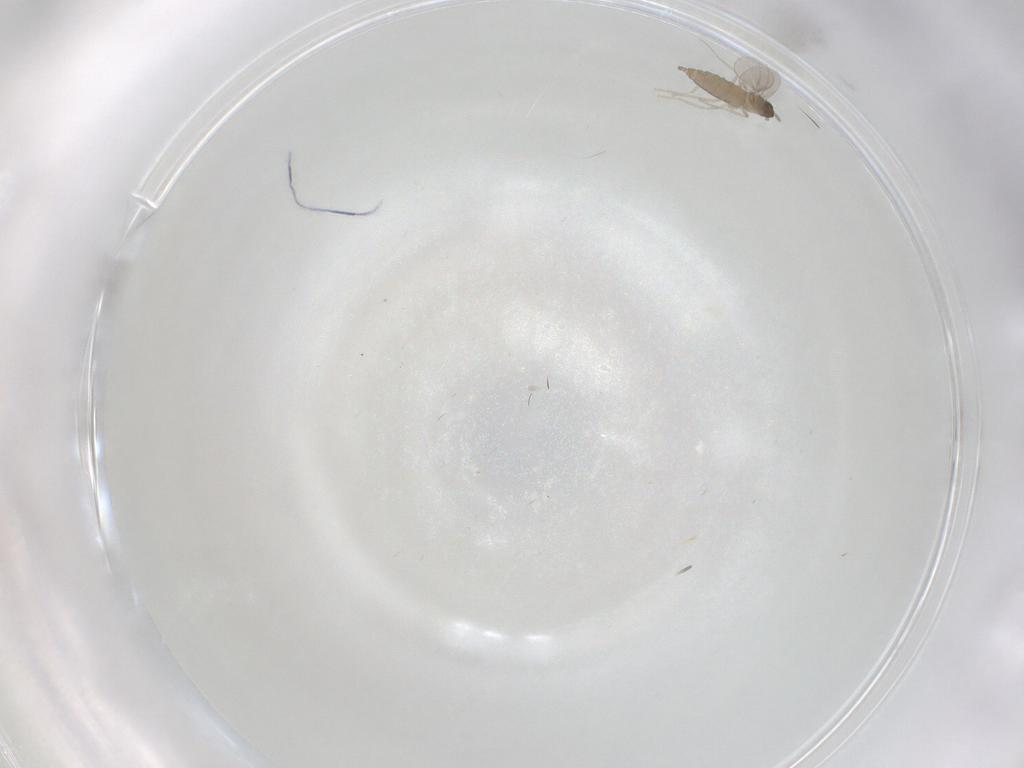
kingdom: Animalia
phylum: Arthropoda
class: Insecta
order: Diptera
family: Cecidomyiidae
